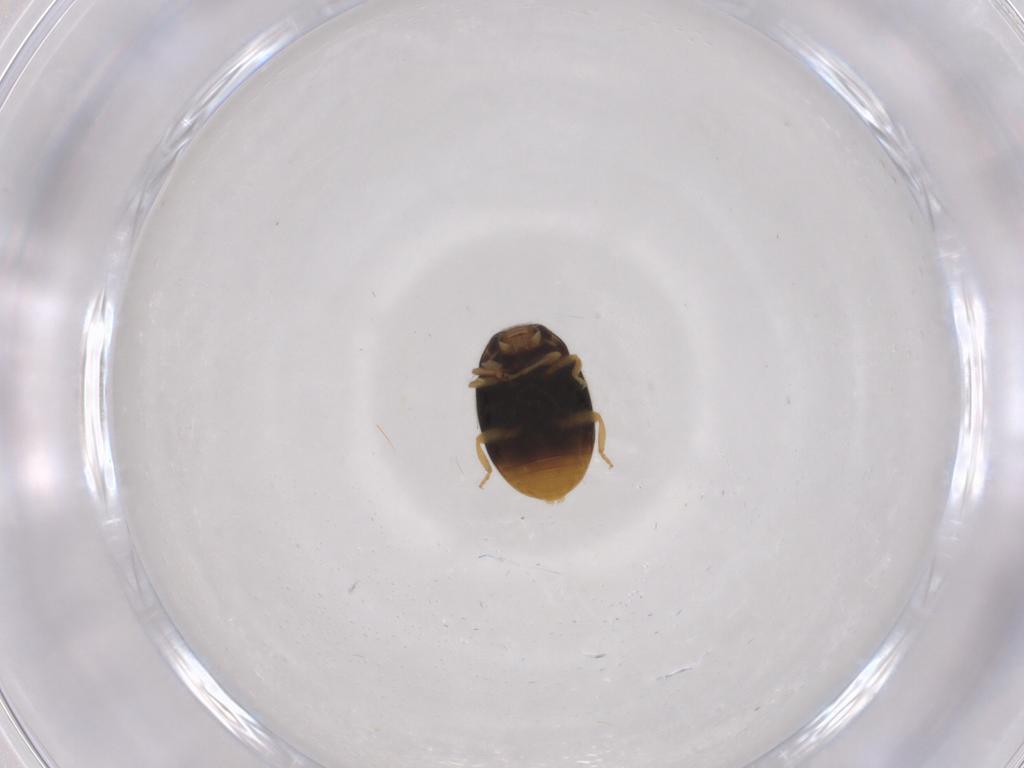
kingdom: Animalia
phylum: Arthropoda
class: Insecta
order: Coleoptera
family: Coccinellidae
